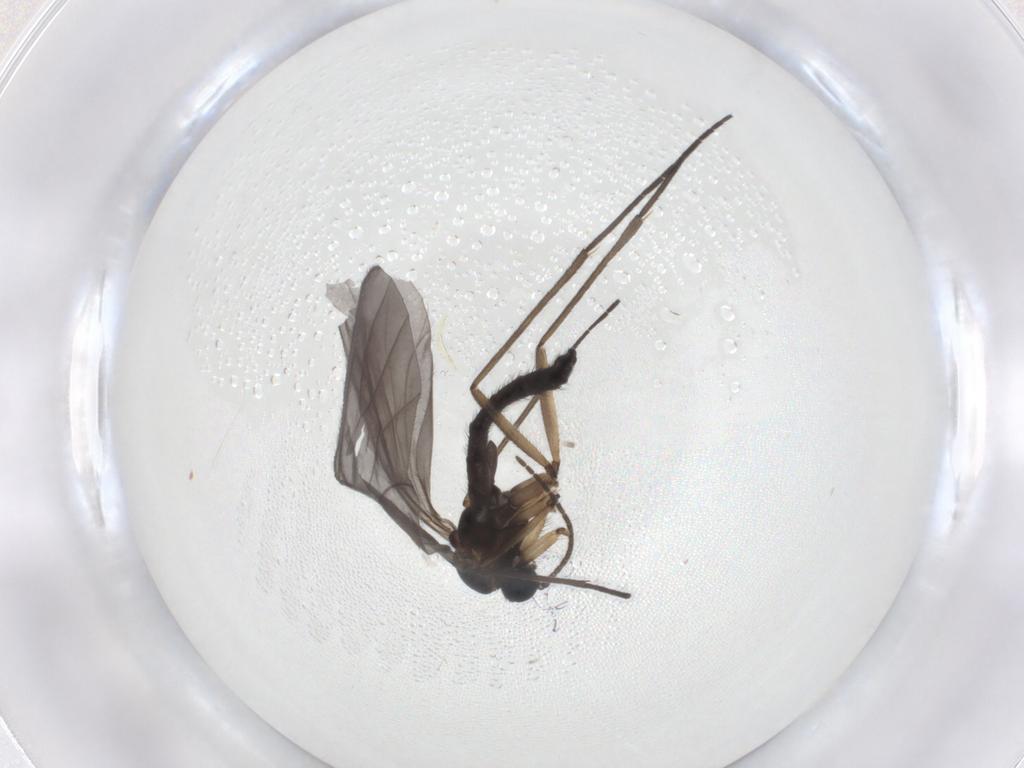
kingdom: Animalia
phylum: Arthropoda
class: Insecta
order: Diptera
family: Sciaridae
